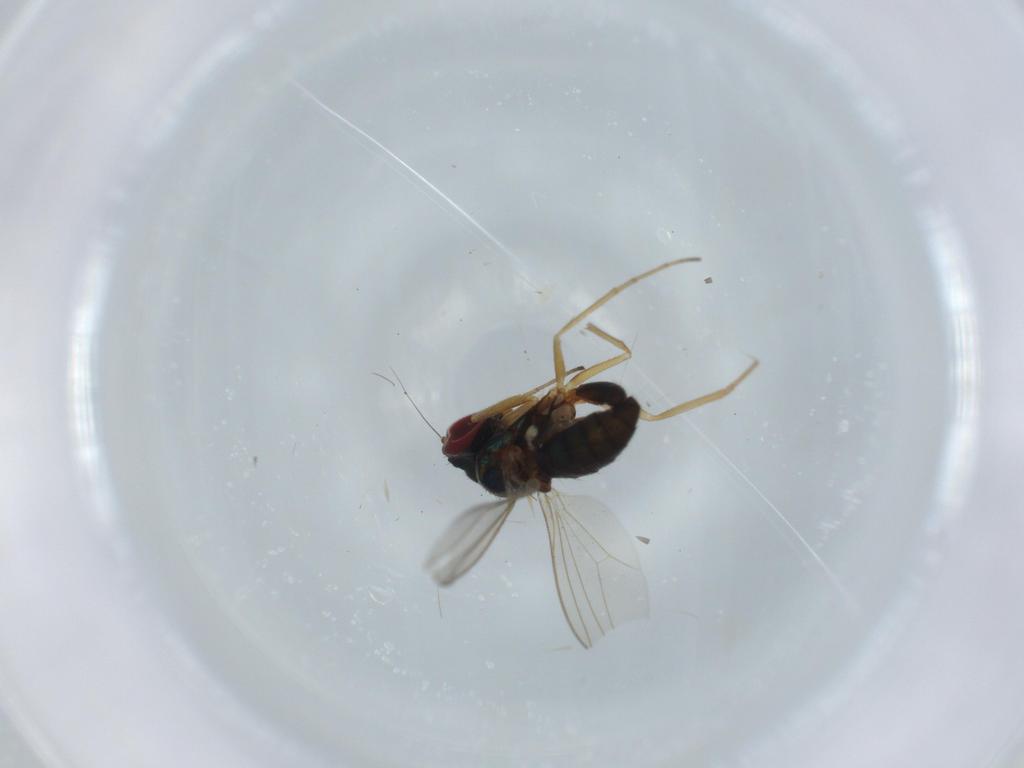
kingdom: Animalia
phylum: Arthropoda
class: Insecta
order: Diptera
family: Dolichopodidae
